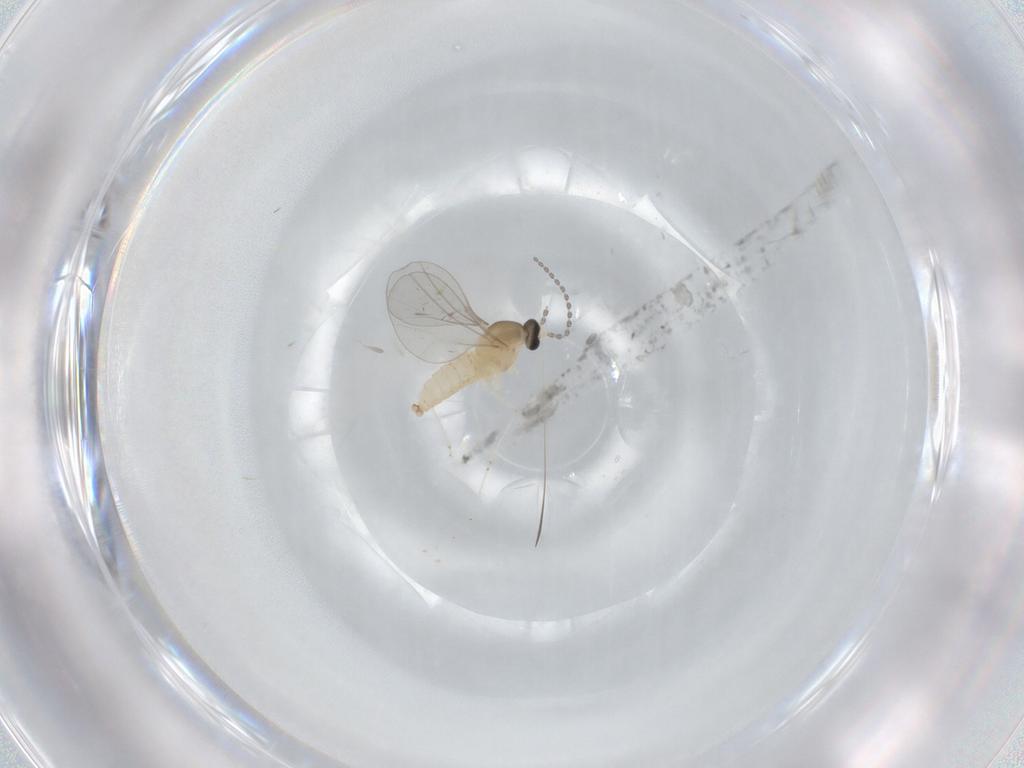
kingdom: Animalia
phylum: Arthropoda
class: Insecta
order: Diptera
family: Cecidomyiidae
